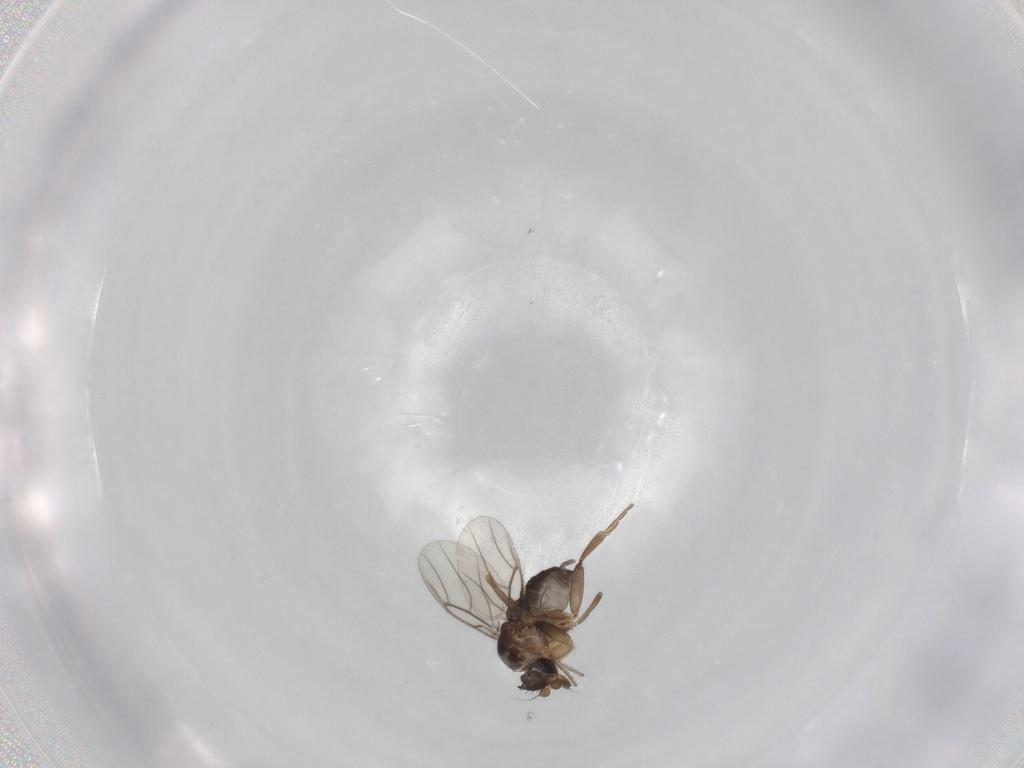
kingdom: Animalia
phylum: Arthropoda
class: Insecta
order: Diptera
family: Phoridae
